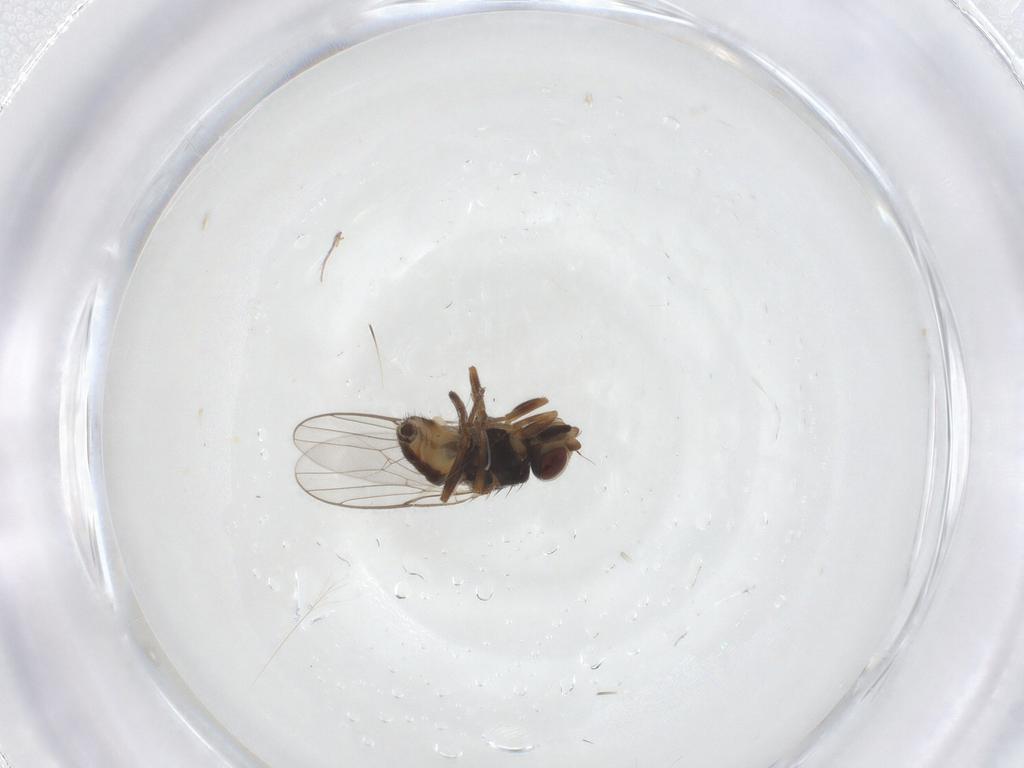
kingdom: Animalia
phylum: Arthropoda
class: Insecta
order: Diptera
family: Chloropidae
